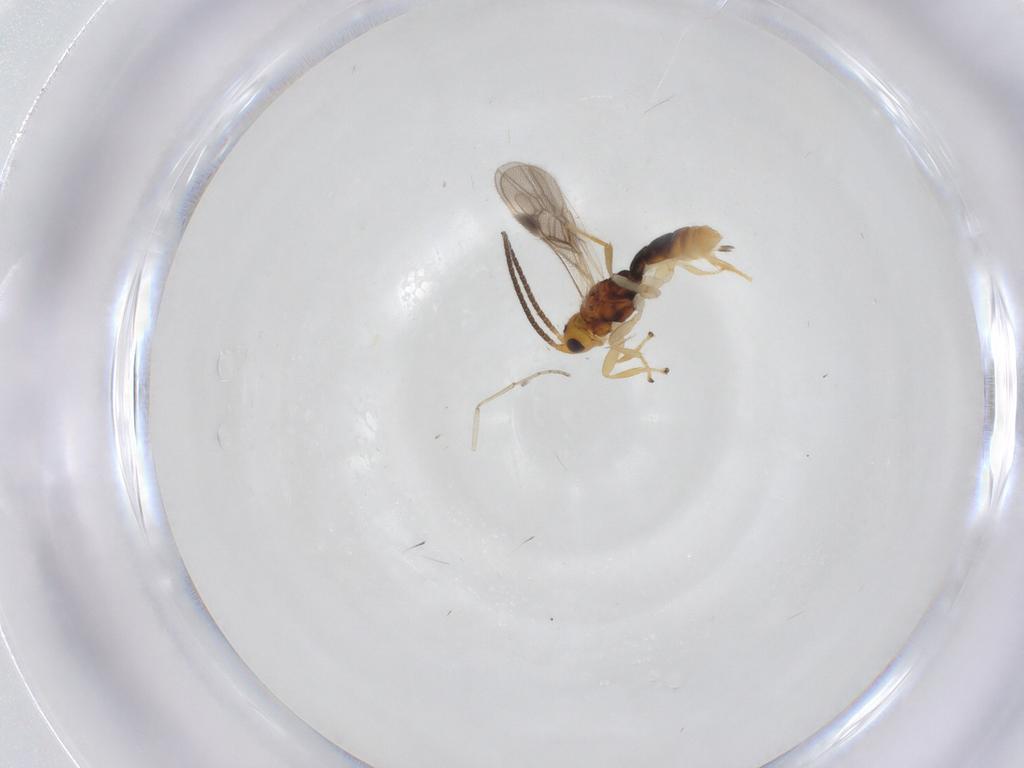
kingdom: Animalia
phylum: Arthropoda
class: Insecta
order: Hymenoptera
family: Braconidae
